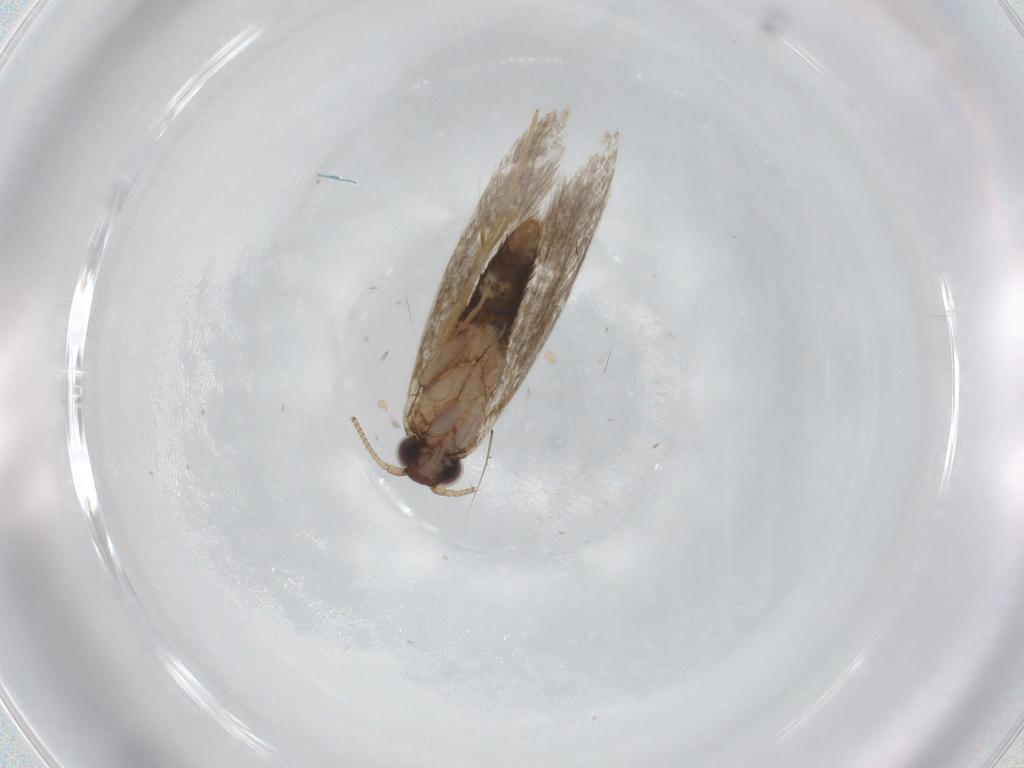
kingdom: Animalia
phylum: Arthropoda
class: Insecta
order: Lepidoptera
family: Tineidae
